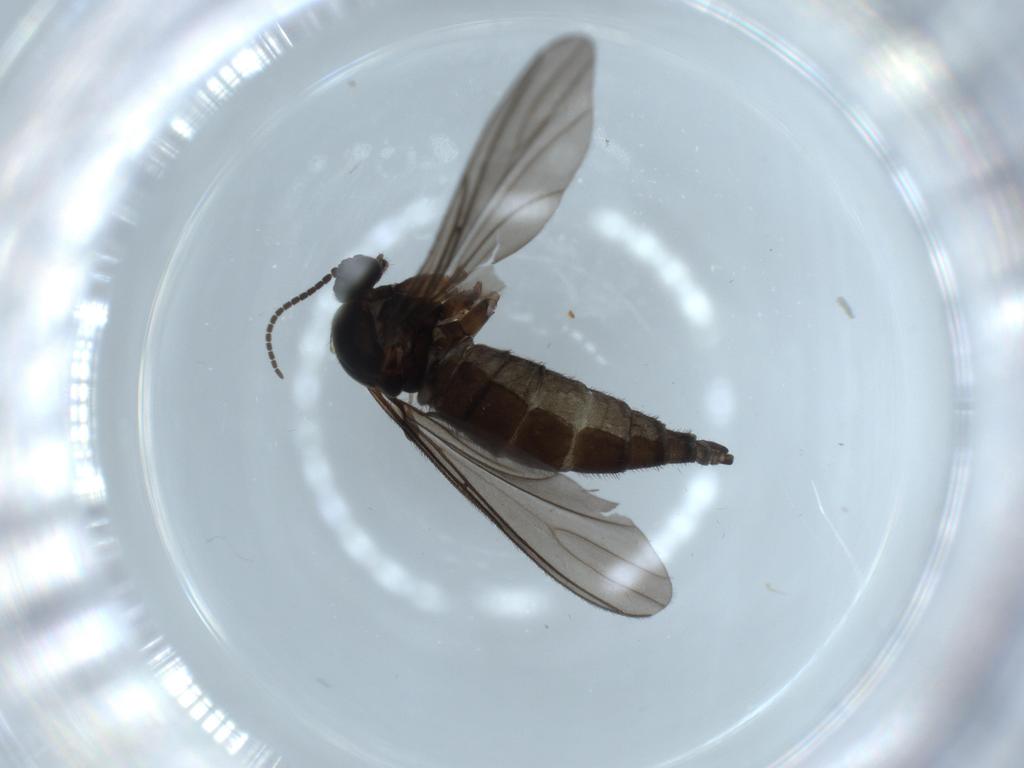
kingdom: Animalia
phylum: Arthropoda
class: Insecta
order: Diptera
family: Sciaridae
